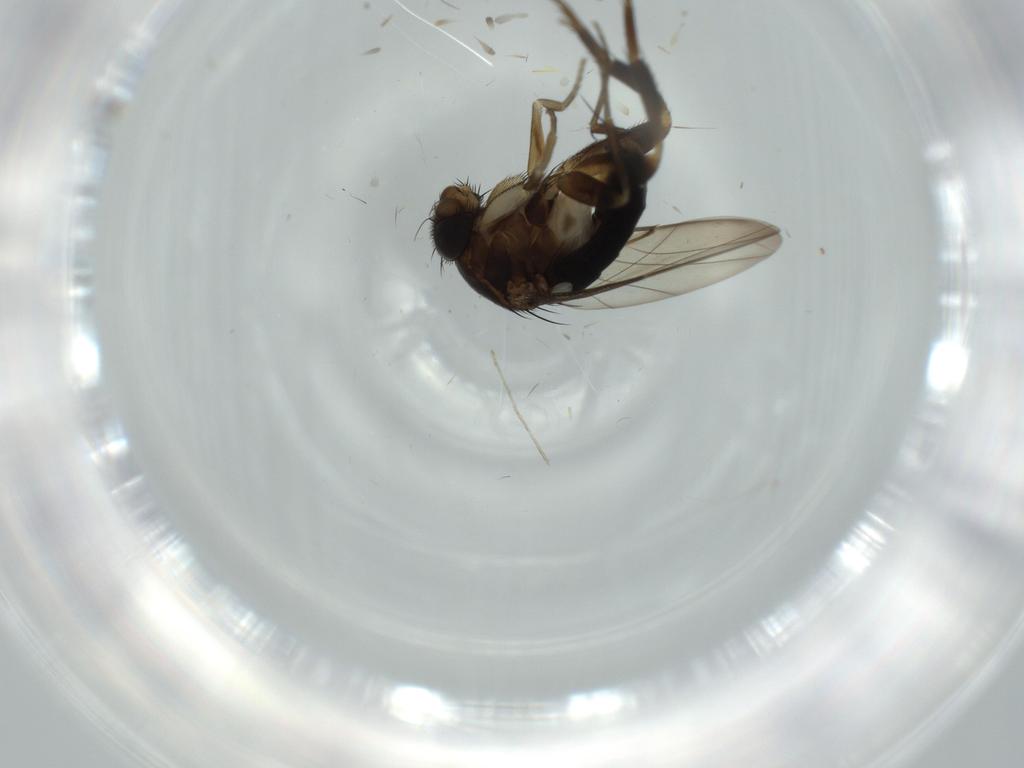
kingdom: Animalia
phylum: Arthropoda
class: Insecta
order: Diptera
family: Phoridae
